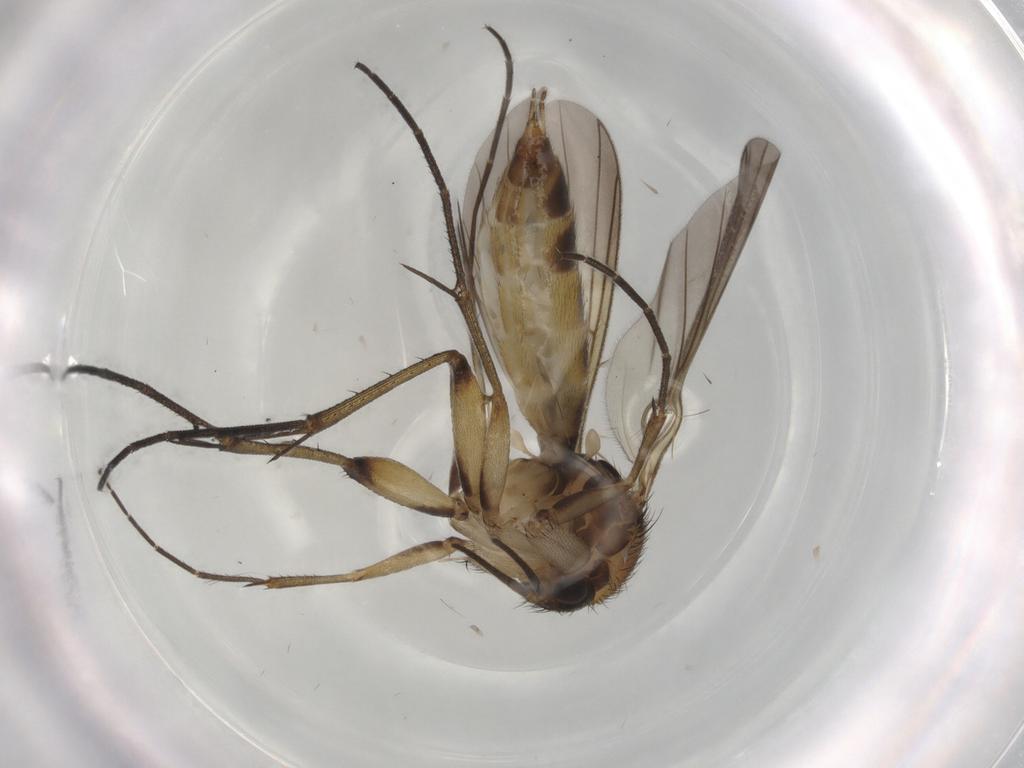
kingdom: Animalia
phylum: Arthropoda
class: Insecta
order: Diptera
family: Mycetophilidae
